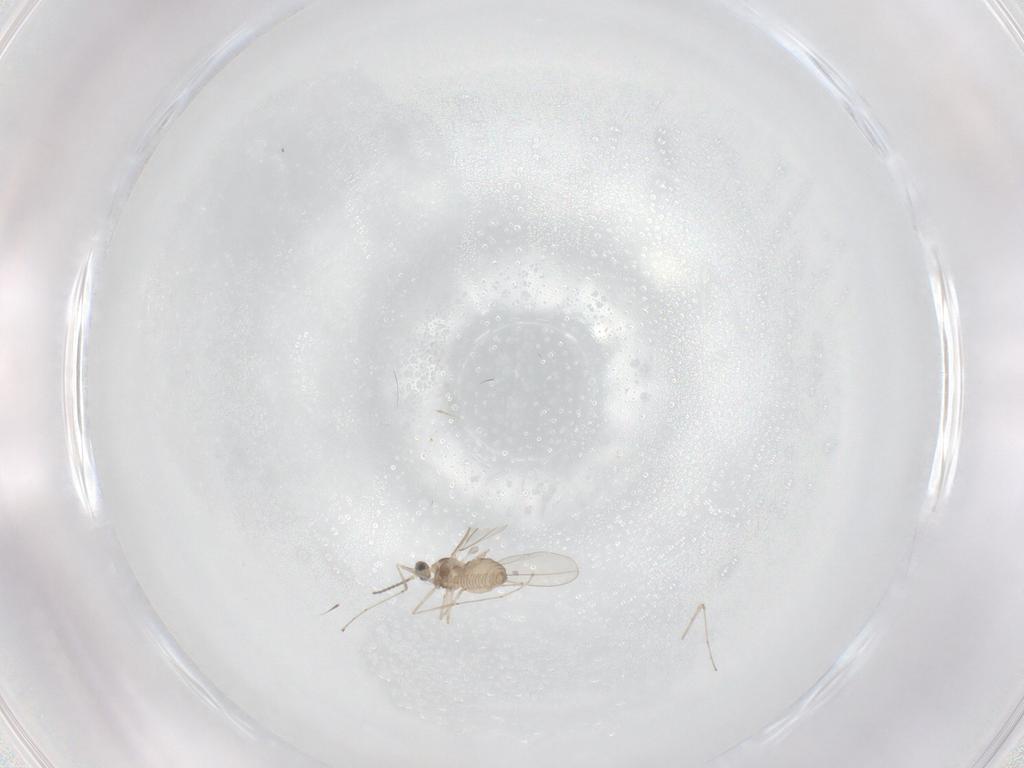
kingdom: Animalia
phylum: Arthropoda
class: Insecta
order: Diptera
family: Cecidomyiidae
